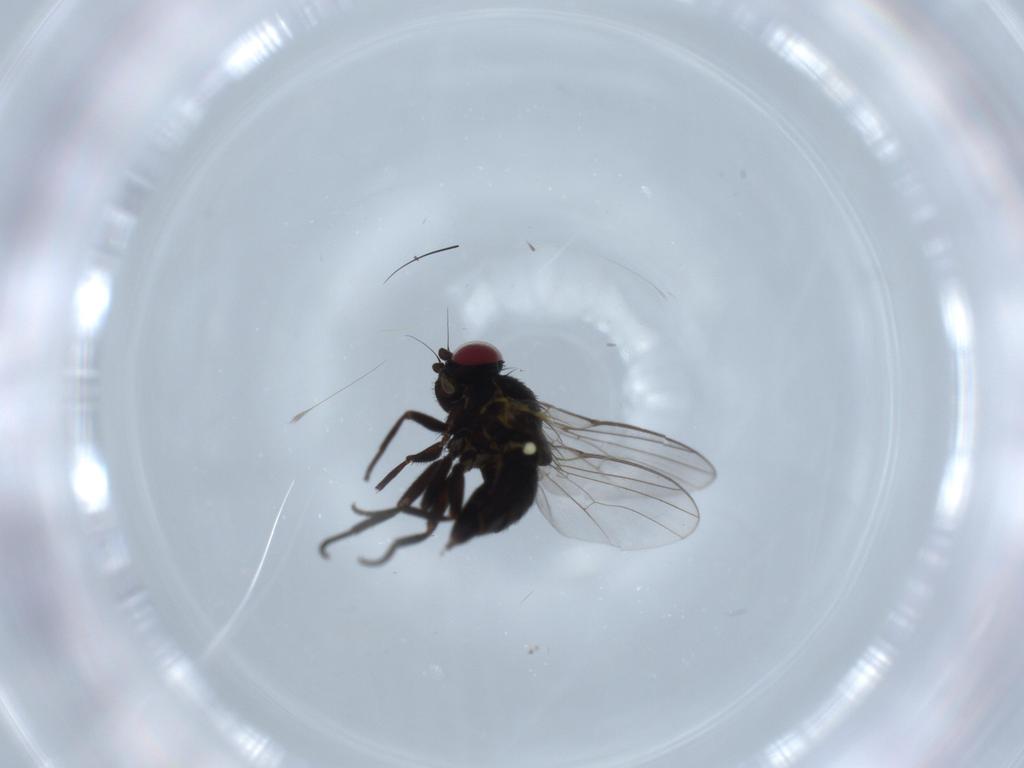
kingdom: Animalia
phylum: Arthropoda
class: Insecta
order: Diptera
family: Agromyzidae
